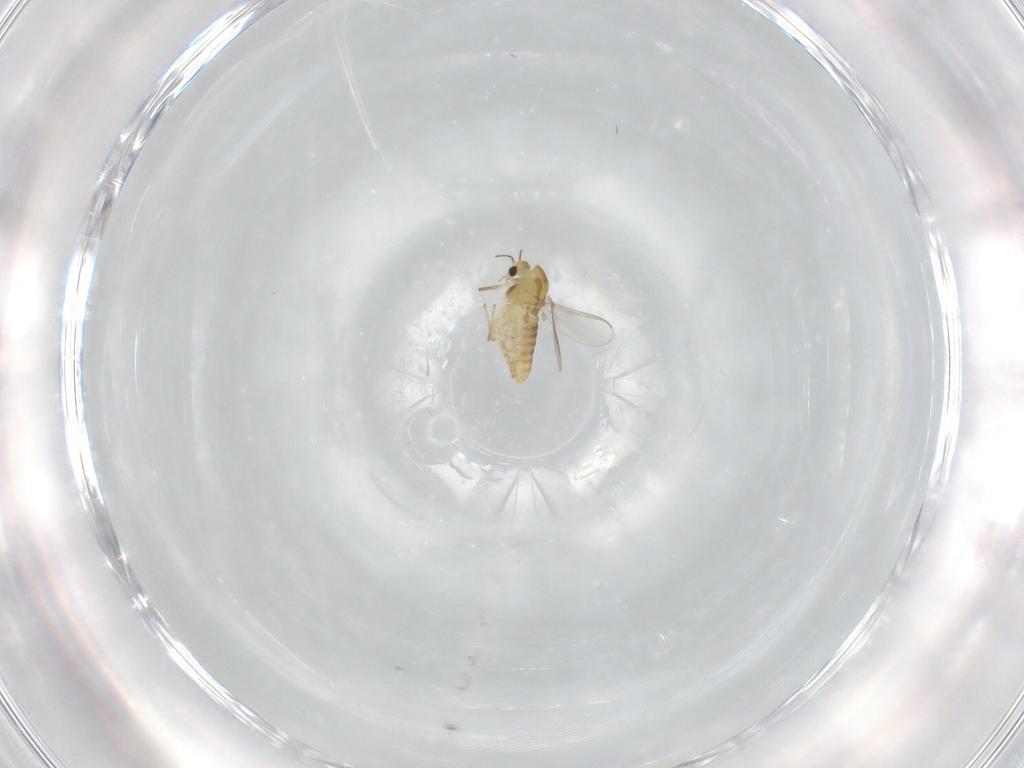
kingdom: Animalia
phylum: Arthropoda
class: Insecta
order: Diptera
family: Chironomidae
